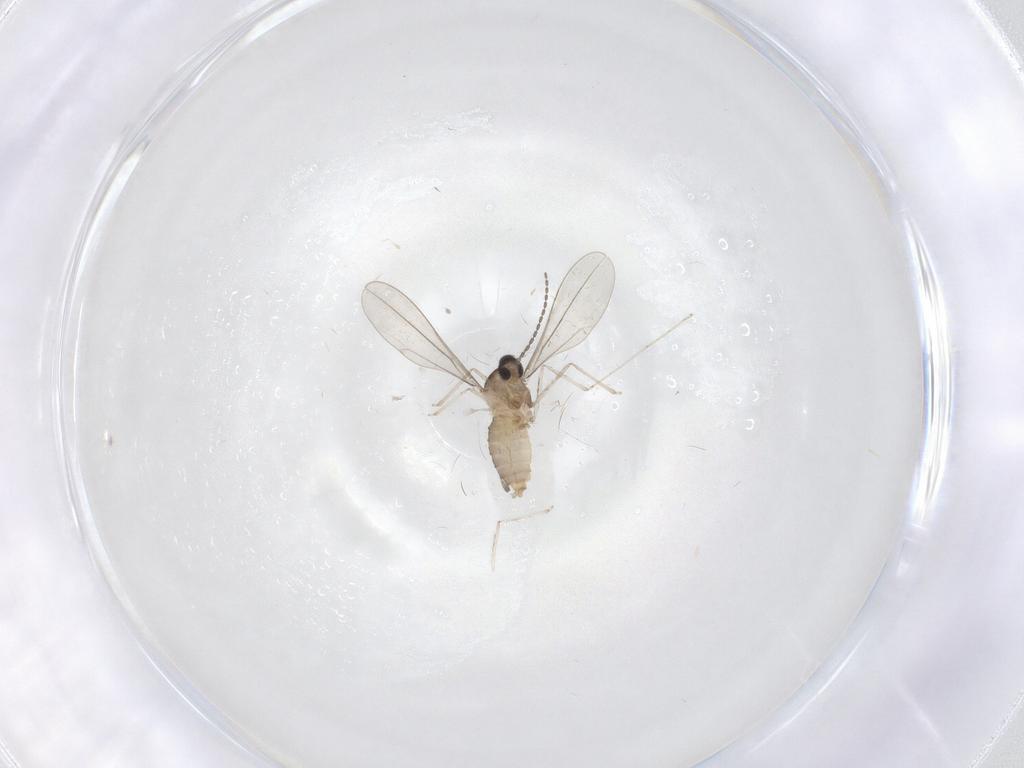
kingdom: Animalia
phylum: Arthropoda
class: Insecta
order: Diptera
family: Cecidomyiidae
